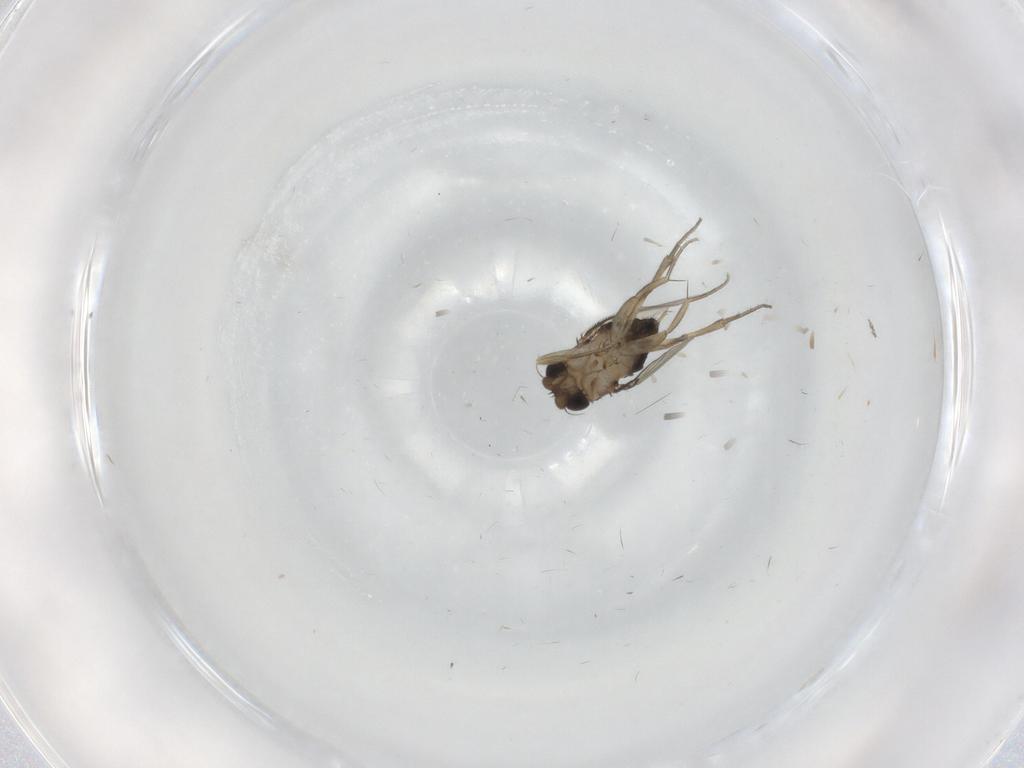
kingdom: Animalia
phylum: Arthropoda
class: Insecta
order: Diptera
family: Phoridae
